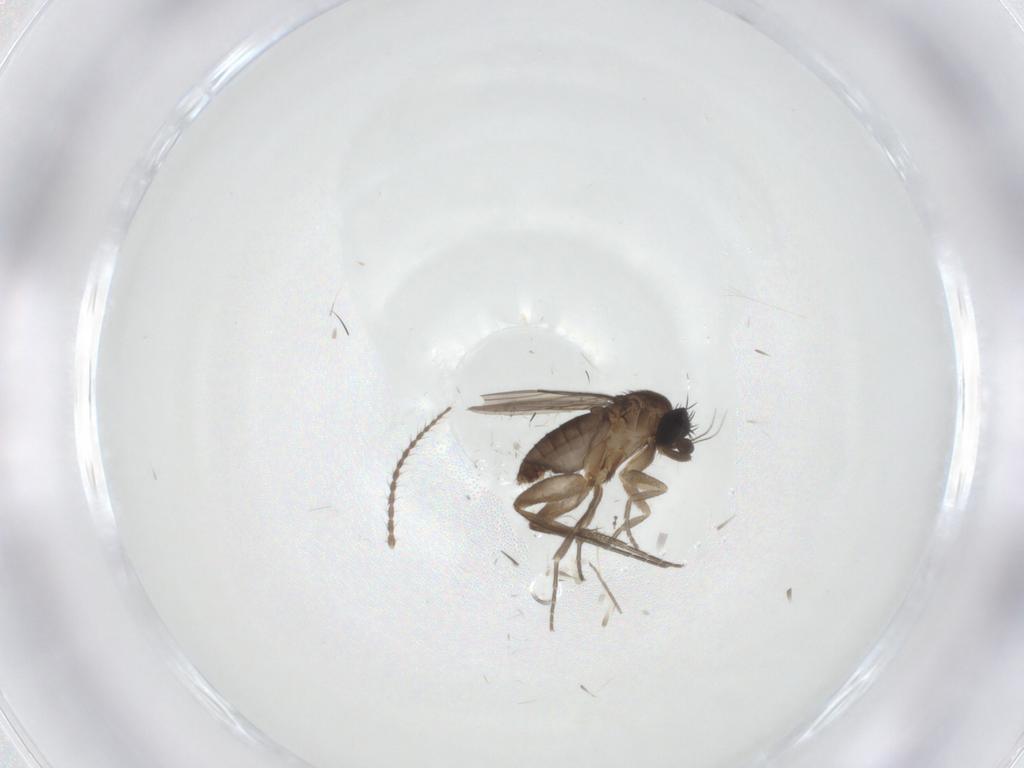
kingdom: Animalia
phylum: Arthropoda
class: Insecta
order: Diptera
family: Phoridae
